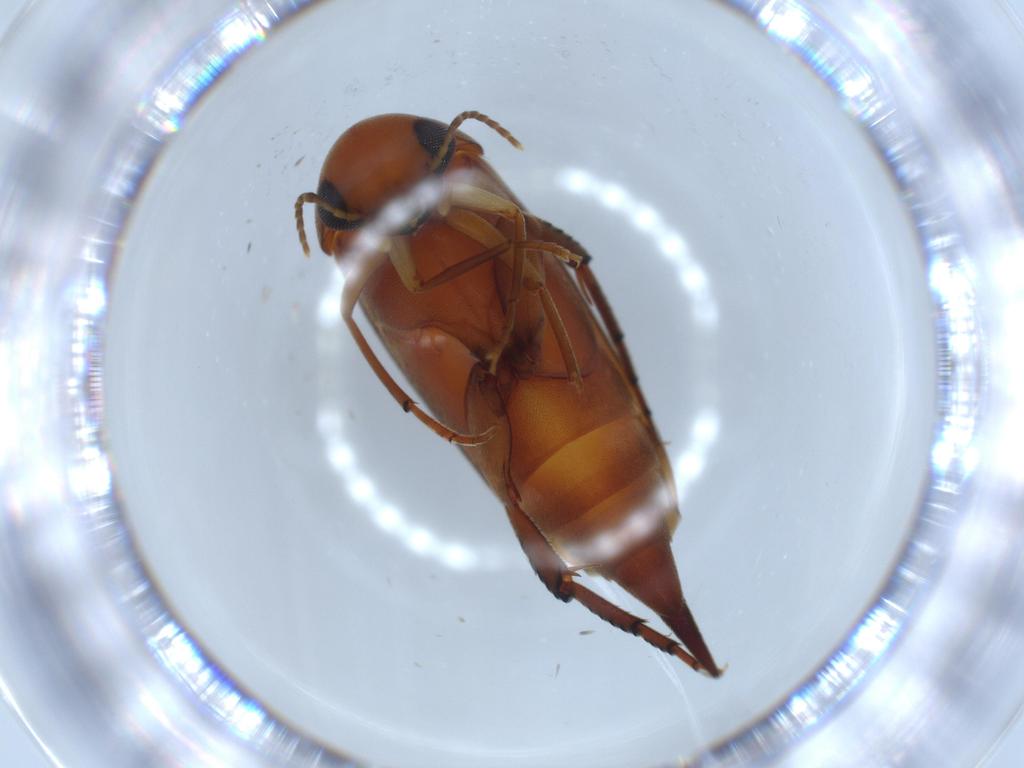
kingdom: Animalia
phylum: Arthropoda
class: Insecta
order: Coleoptera
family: Mordellidae
